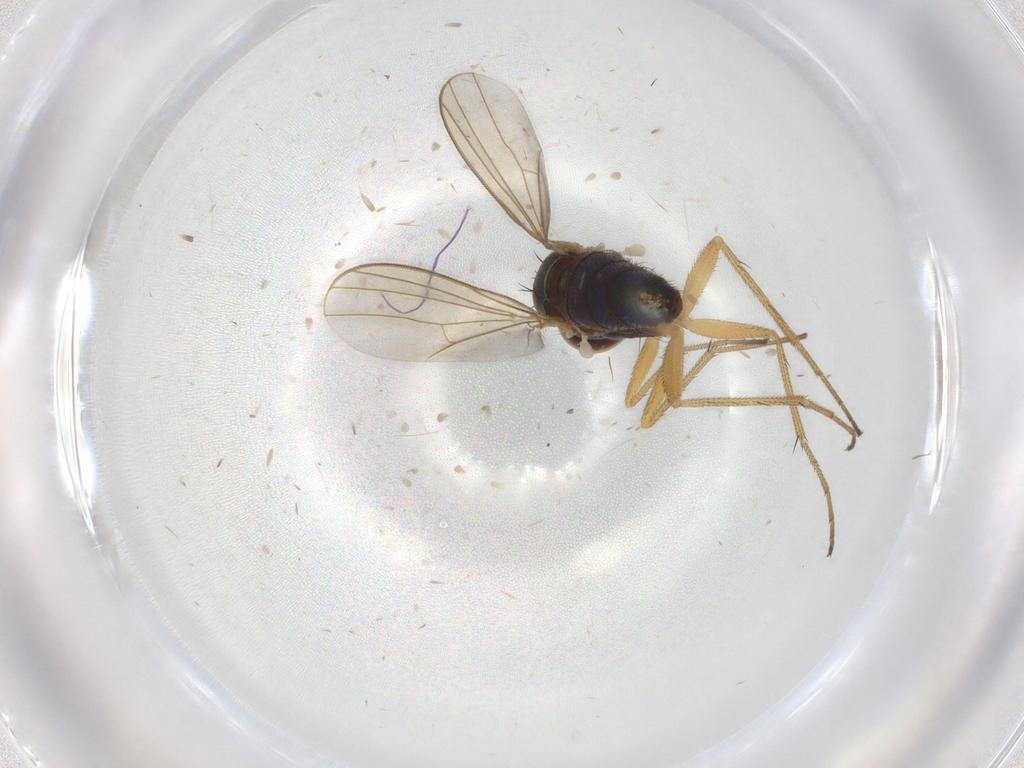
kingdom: Animalia
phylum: Arthropoda
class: Insecta
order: Diptera
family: Dolichopodidae
